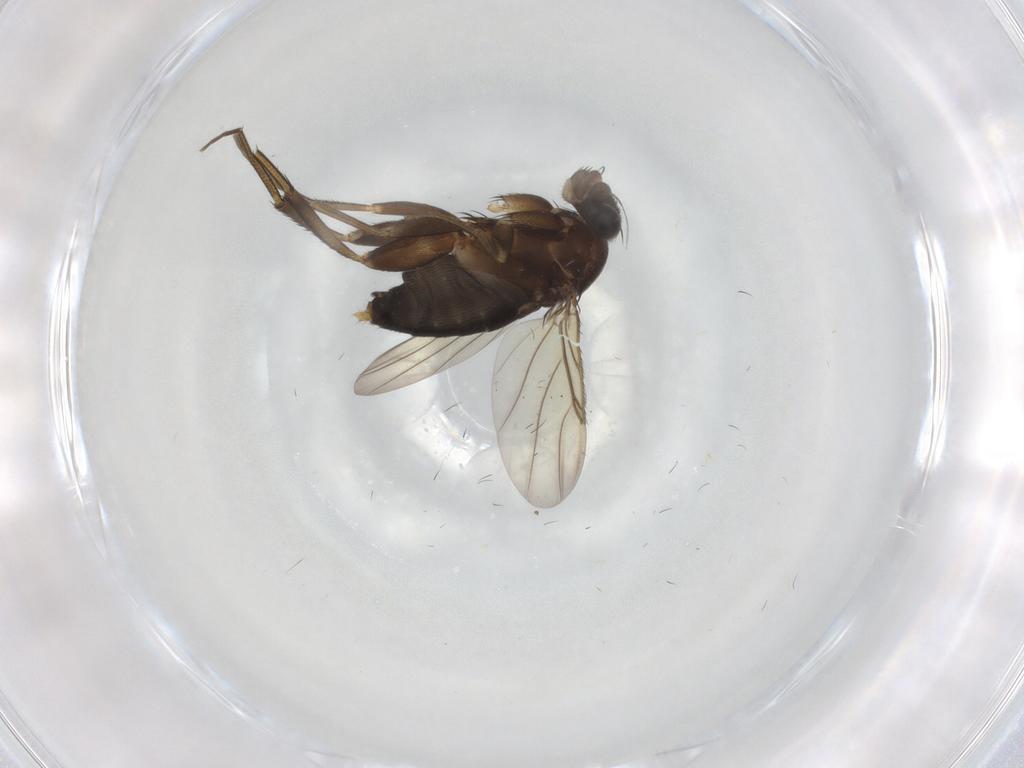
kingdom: Animalia
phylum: Arthropoda
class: Insecta
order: Diptera
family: Phoridae
